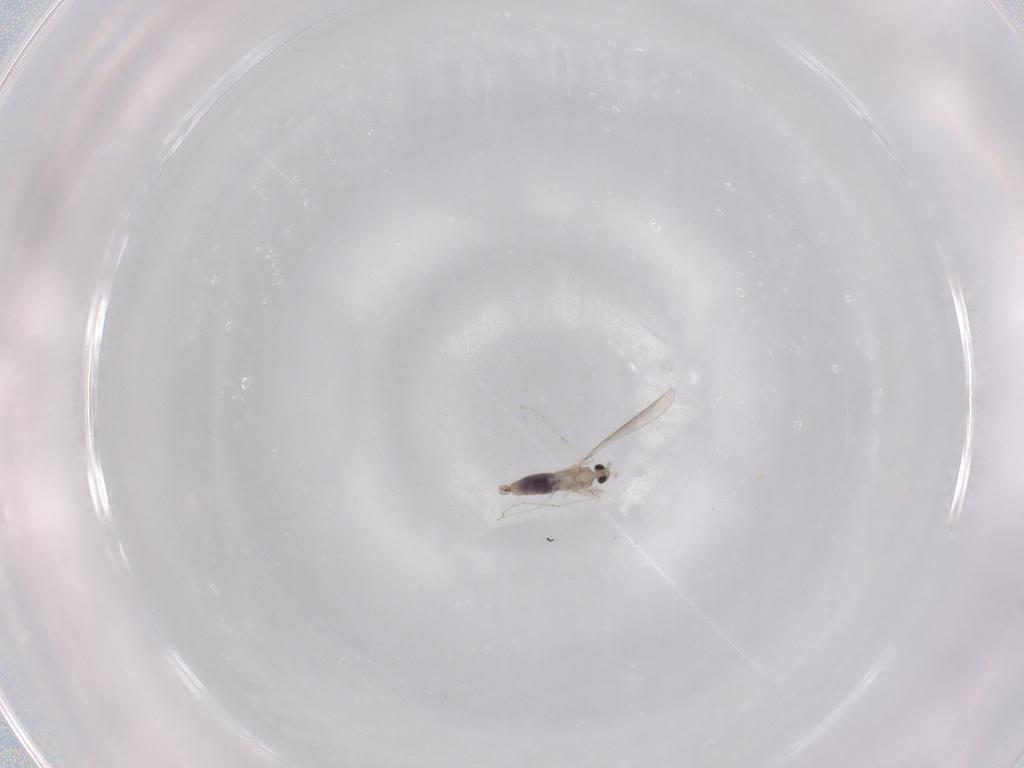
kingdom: Animalia
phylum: Arthropoda
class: Insecta
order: Diptera
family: Cecidomyiidae
